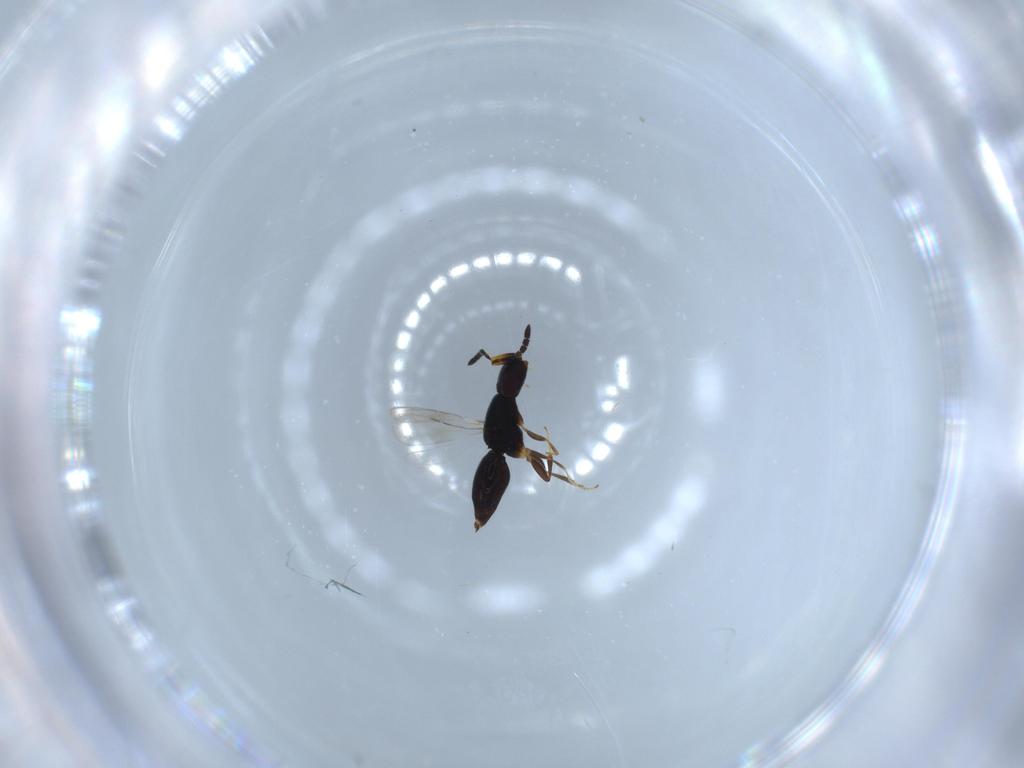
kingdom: Animalia
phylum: Arthropoda
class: Insecta
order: Hymenoptera
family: Ceraphronidae
